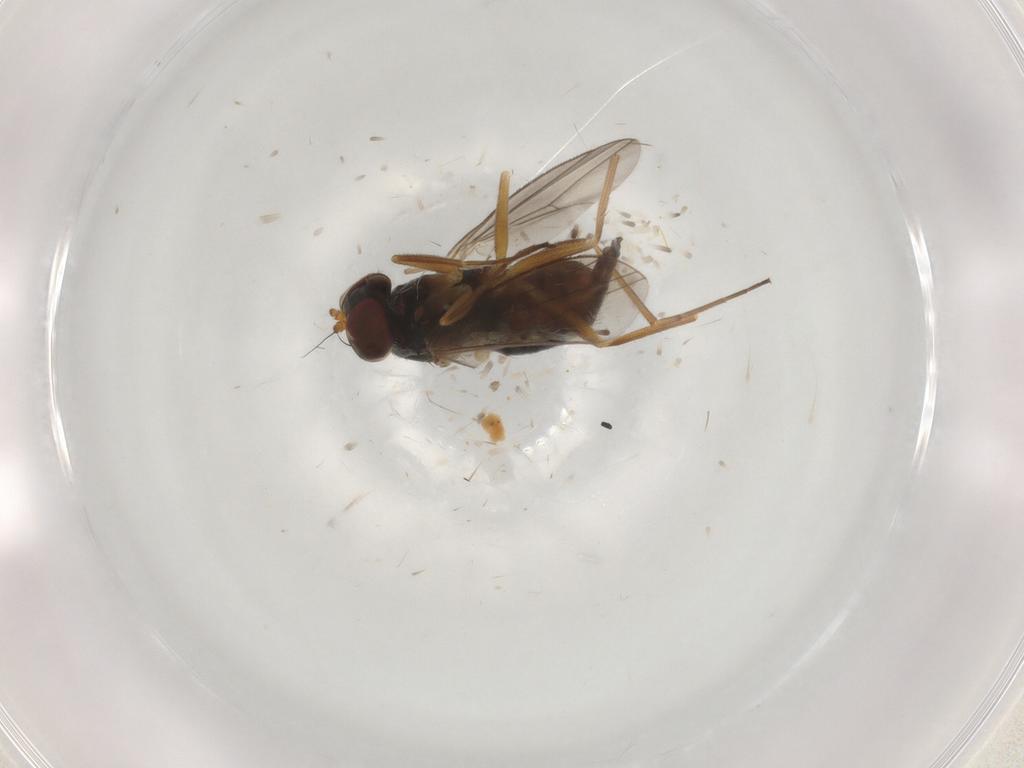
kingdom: Animalia
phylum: Arthropoda
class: Insecta
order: Diptera
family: Dolichopodidae
